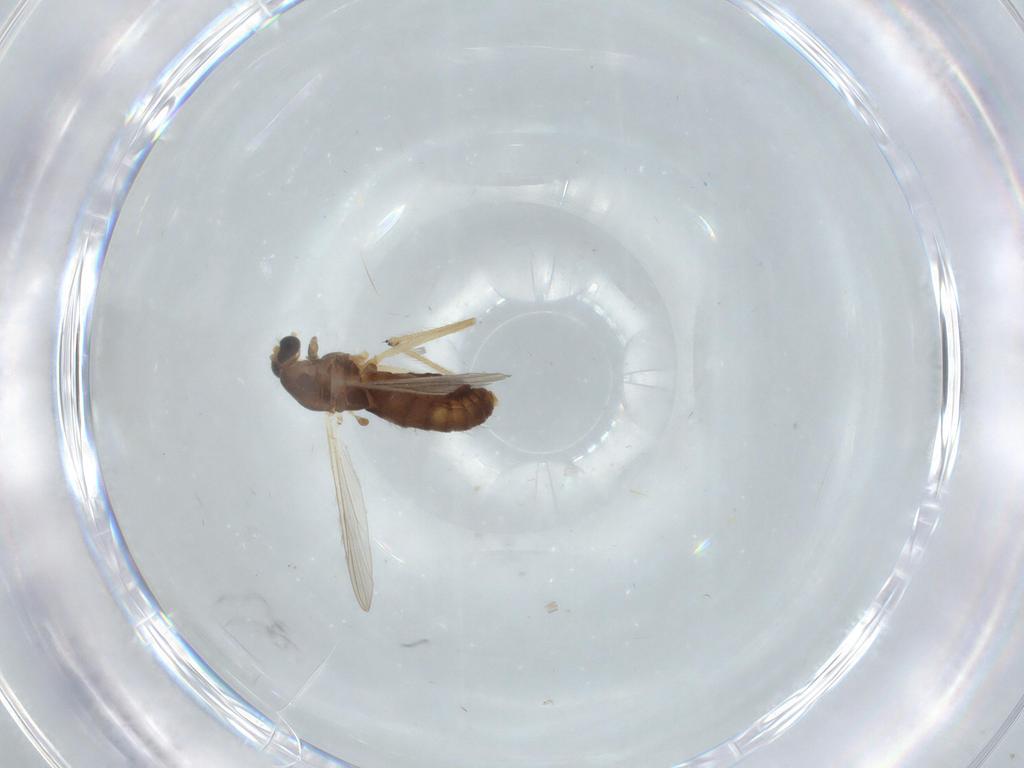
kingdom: Animalia
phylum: Arthropoda
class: Insecta
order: Diptera
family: Chironomidae
